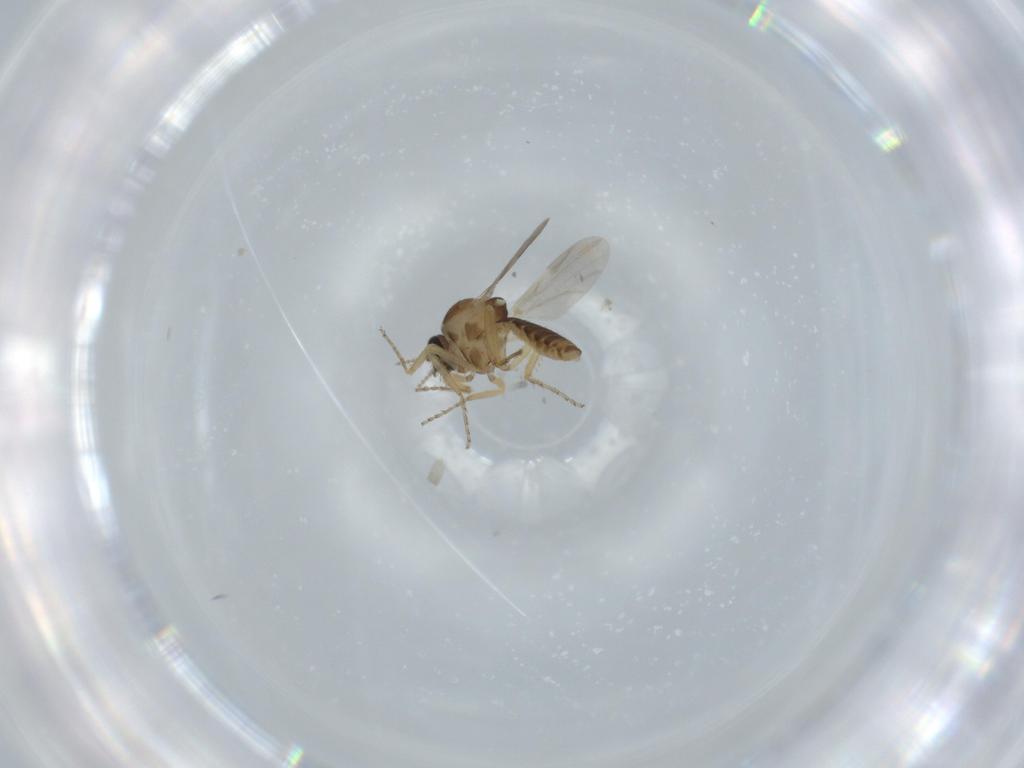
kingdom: Animalia
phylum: Arthropoda
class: Insecta
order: Diptera
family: Ceratopogonidae
